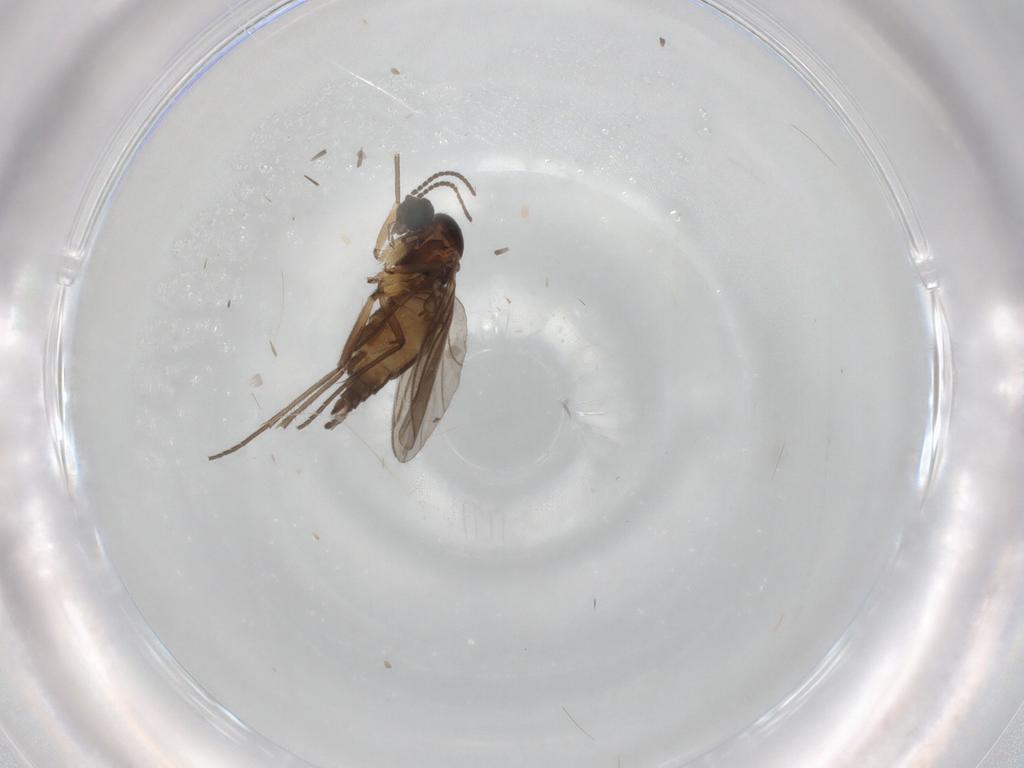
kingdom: Animalia
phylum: Arthropoda
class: Insecta
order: Diptera
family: Sciaridae
